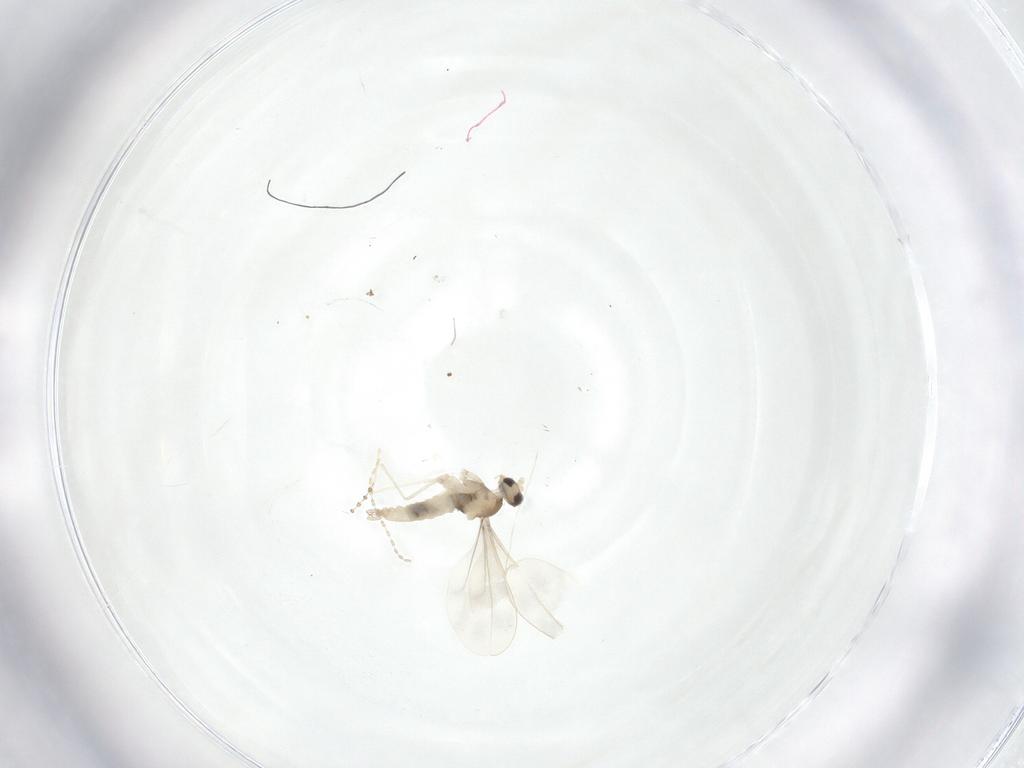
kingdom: Animalia
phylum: Arthropoda
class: Insecta
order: Diptera
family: Cecidomyiidae
